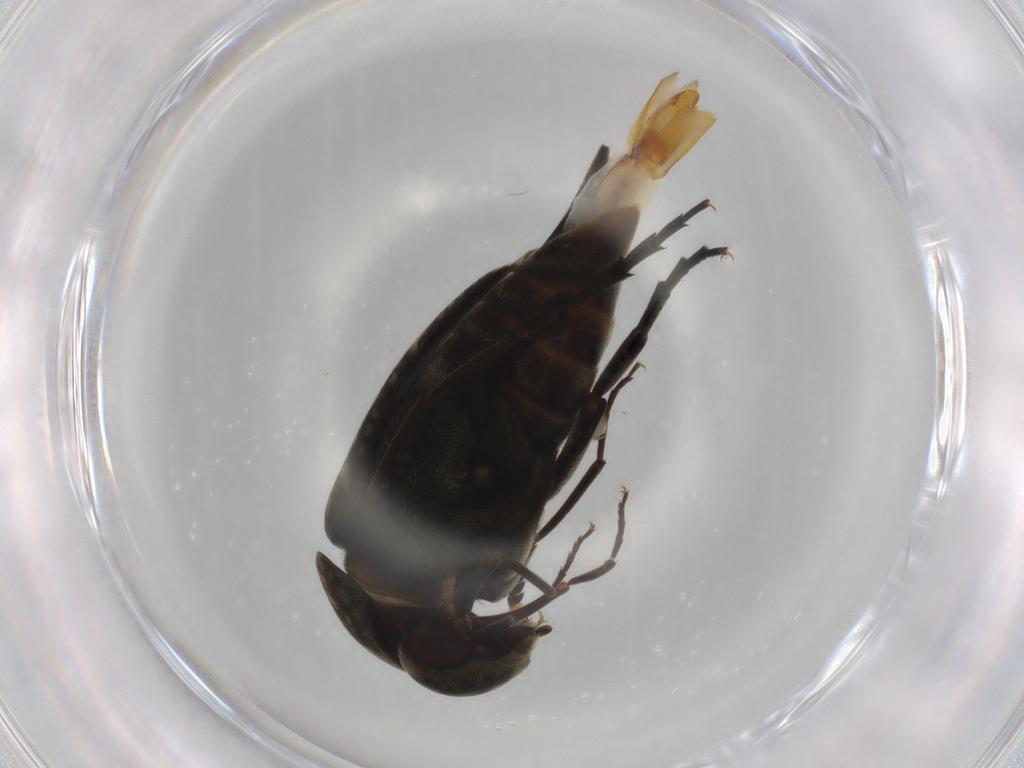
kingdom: Animalia
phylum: Arthropoda
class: Insecta
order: Coleoptera
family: Mordellidae
